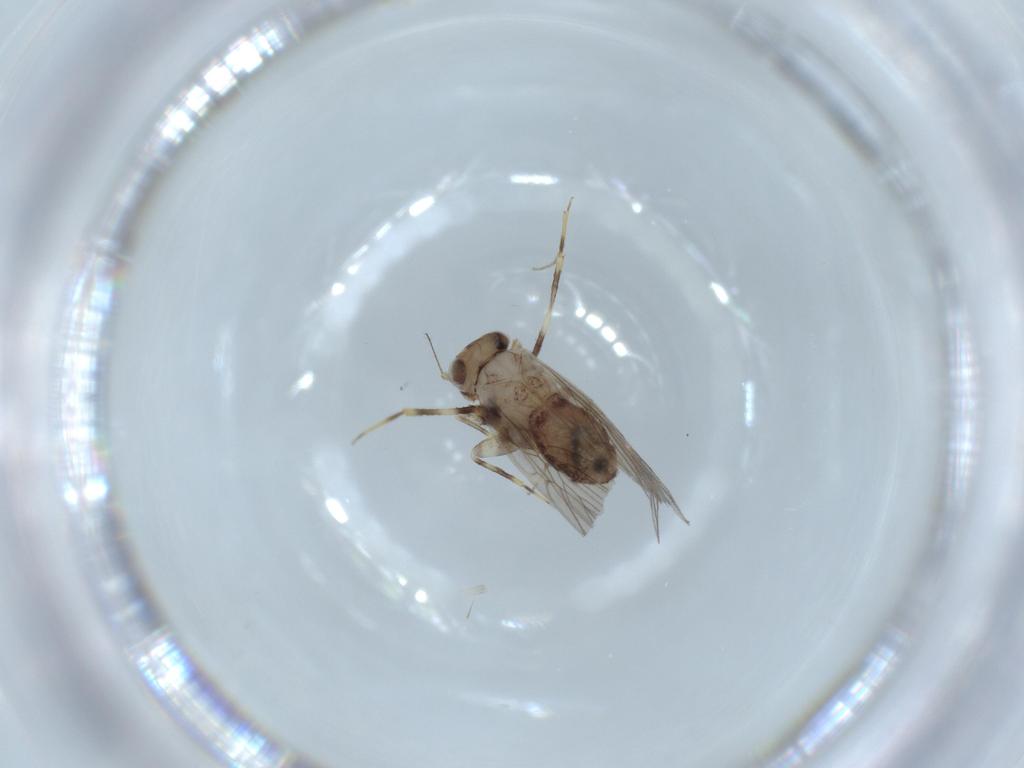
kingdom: Animalia
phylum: Arthropoda
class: Insecta
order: Psocodea
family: Lepidopsocidae
